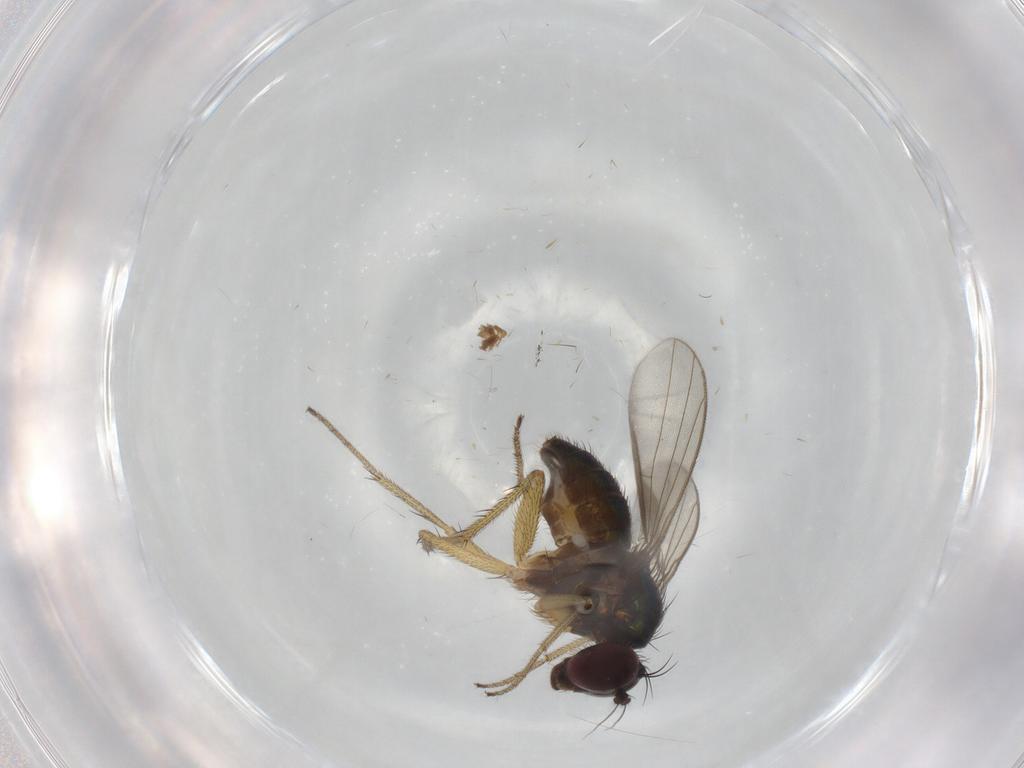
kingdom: Animalia
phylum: Arthropoda
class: Insecta
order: Diptera
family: Dolichopodidae
